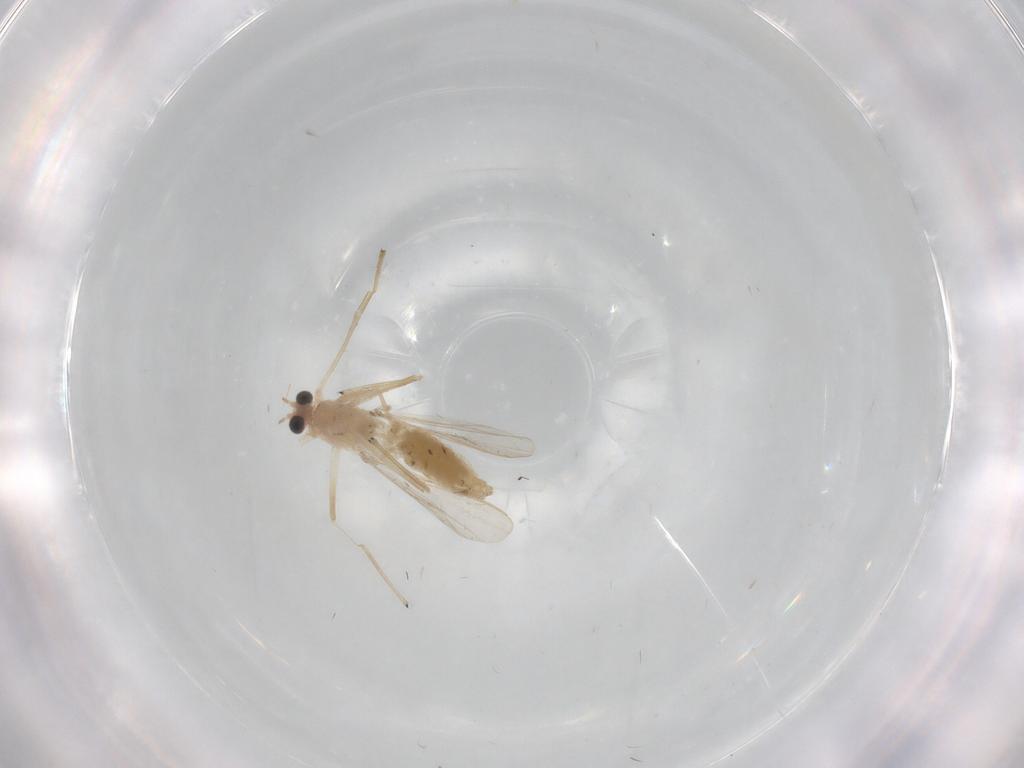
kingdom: Animalia
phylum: Arthropoda
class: Insecta
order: Diptera
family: Chironomidae
